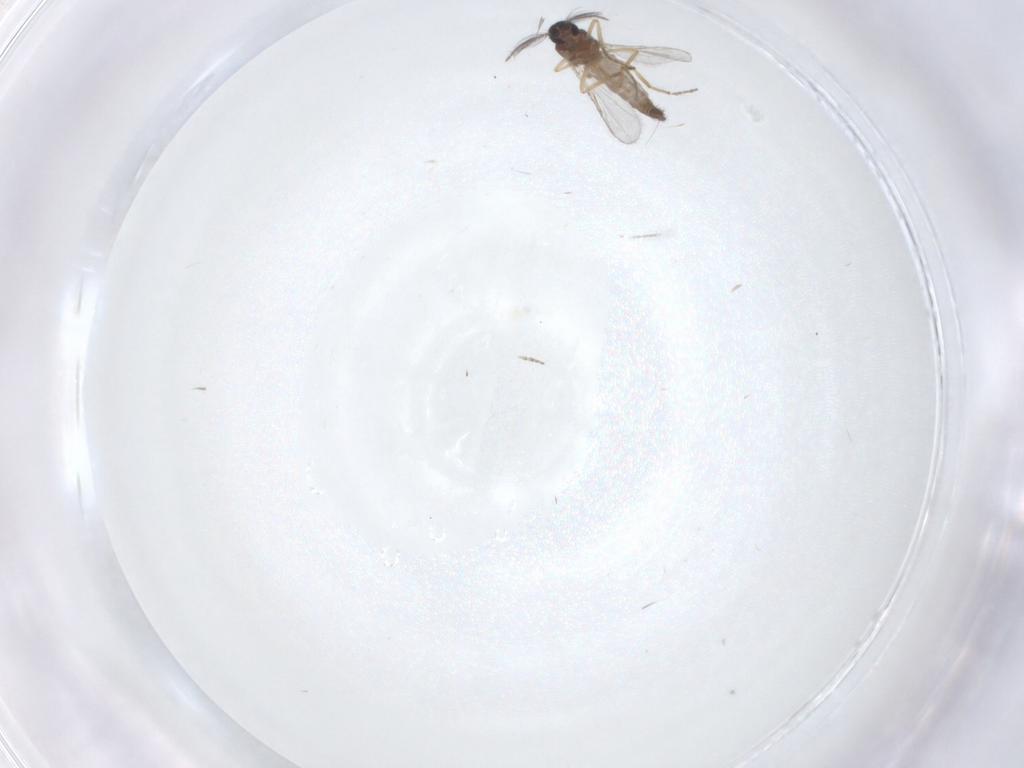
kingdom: Animalia
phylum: Arthropoda
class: Insecta
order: Diptera
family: Ceratopogonidae
